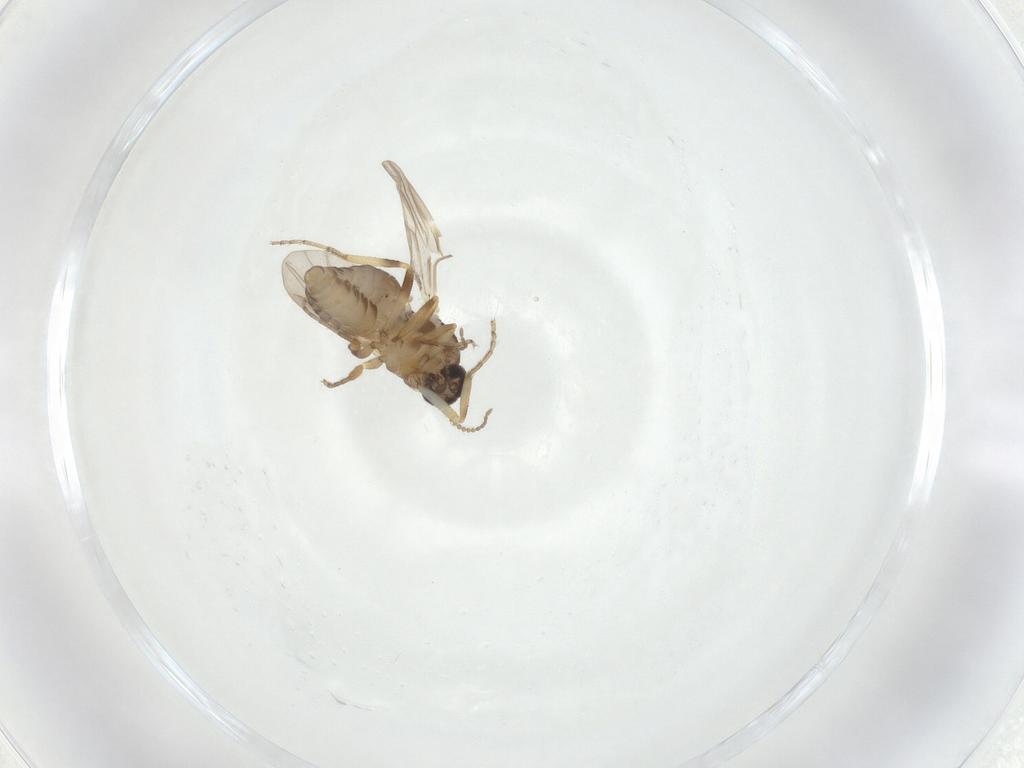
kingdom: Animalia
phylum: Arthropoda
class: Insecta
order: Diptera
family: Ceratopogonidae
